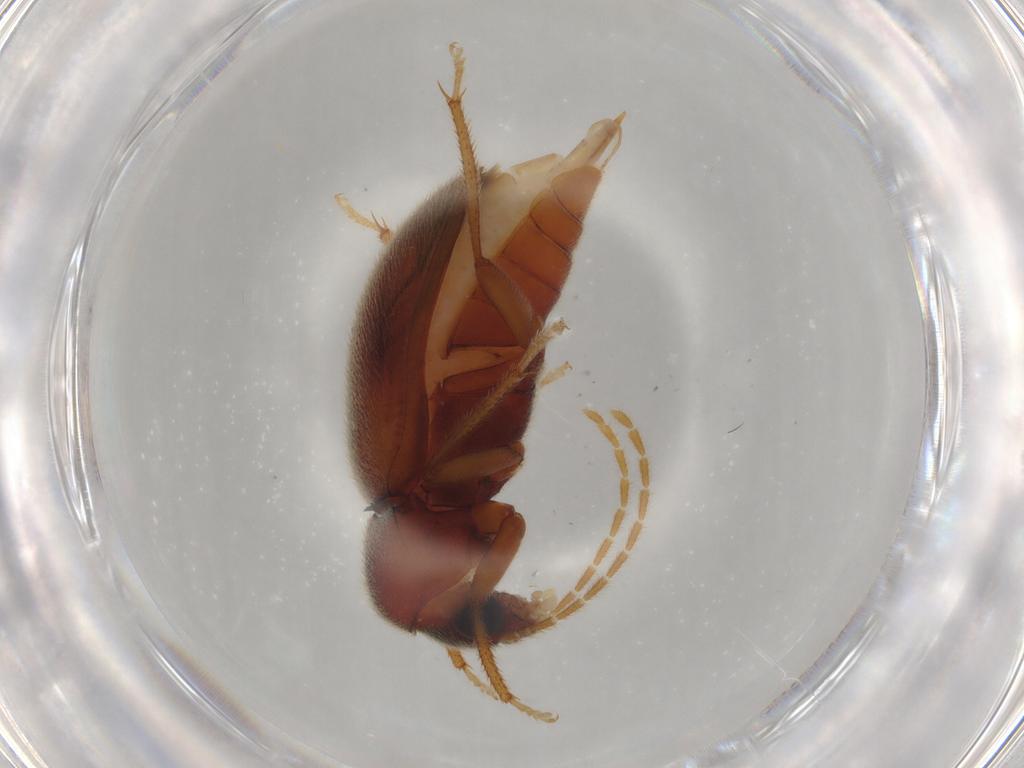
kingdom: Animalia
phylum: Arthropoda
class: Insecta
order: Coleoptera
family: Ptilodactylidae
